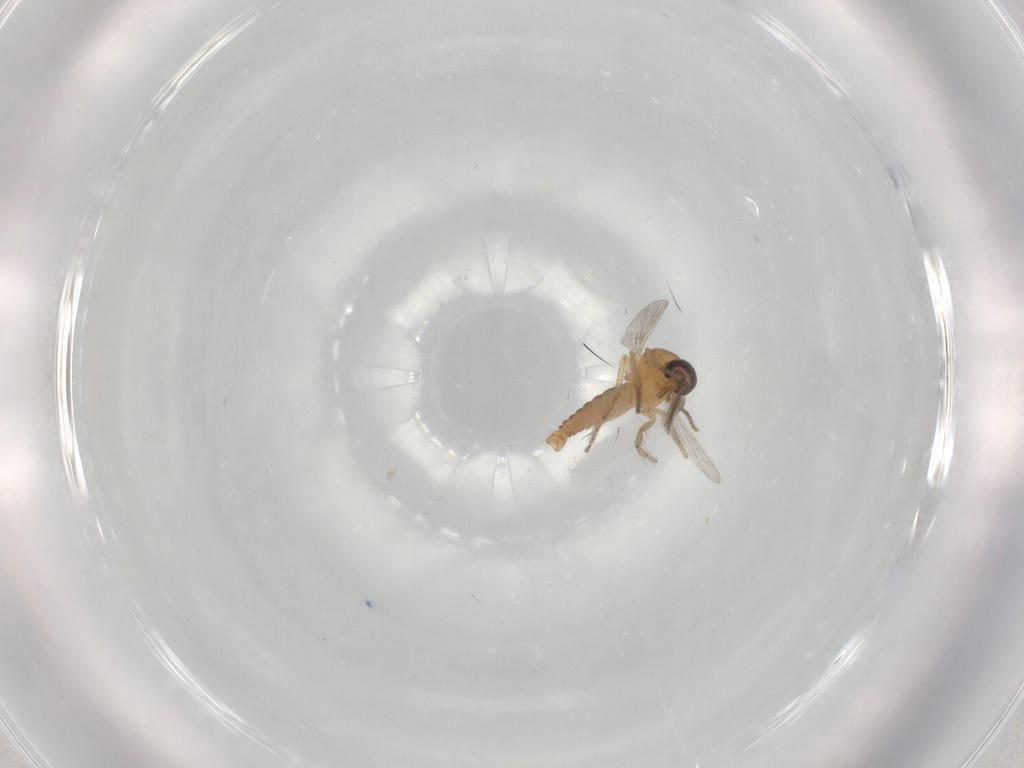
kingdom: Animalia
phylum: Arthropoda
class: Insecta
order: Diptera
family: Ceratopogonidae
